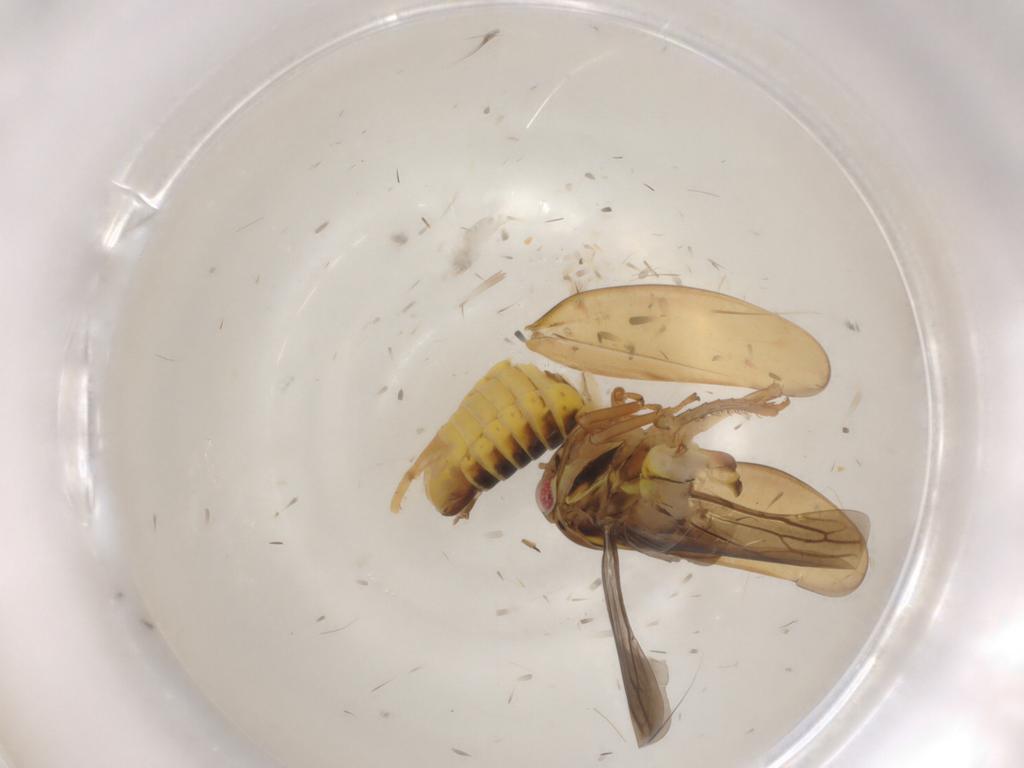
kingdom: Animalia
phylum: Arthropoda
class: Insecta
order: Hemiptera
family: Cicadellidae
